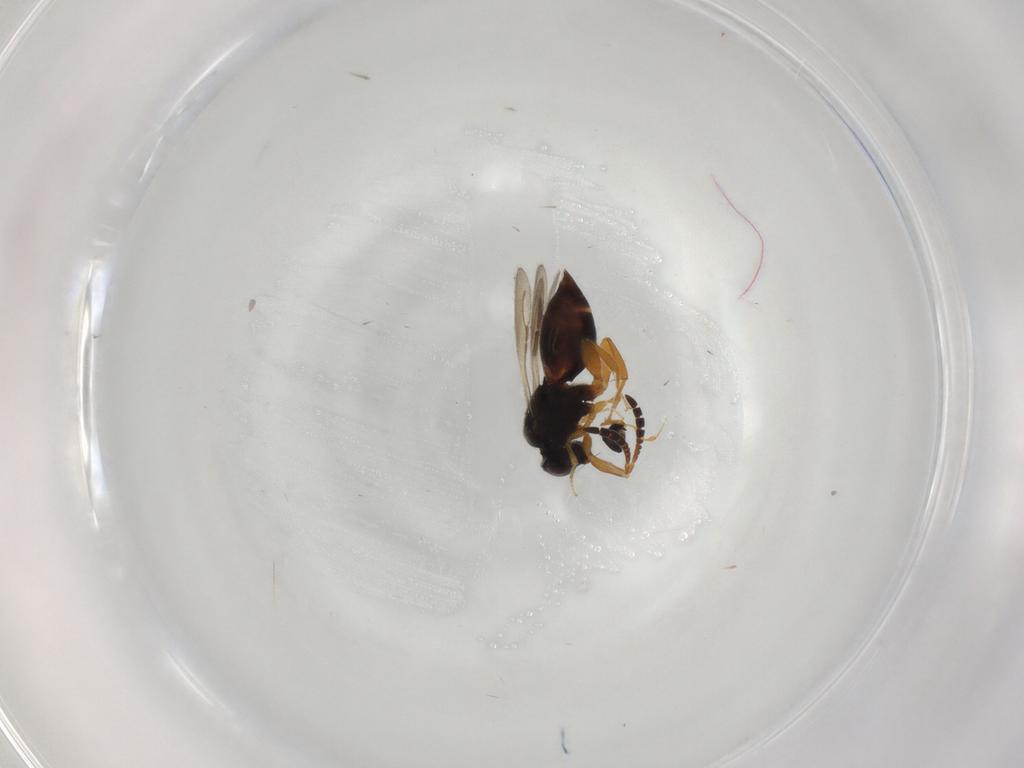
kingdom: Animalia
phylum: Arthropoda
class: Insecta
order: Hymenoptera
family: Platygastridae
